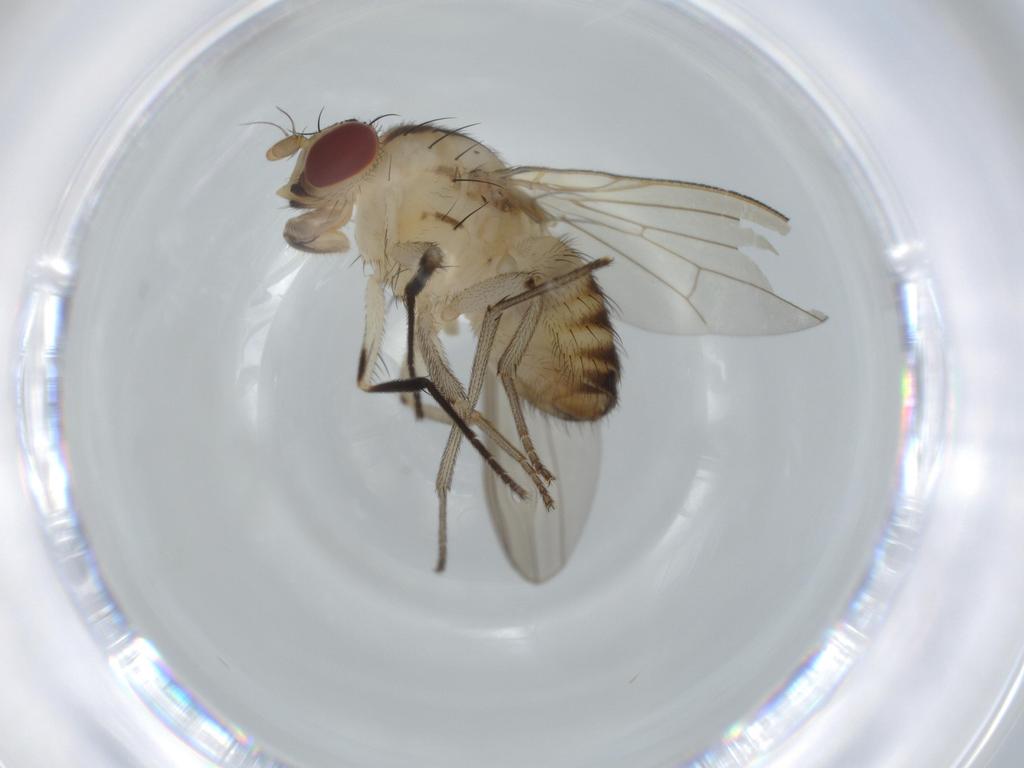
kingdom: Animalia
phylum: Arthropoda
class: Insecta
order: Diptera
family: Lauxaniidae
